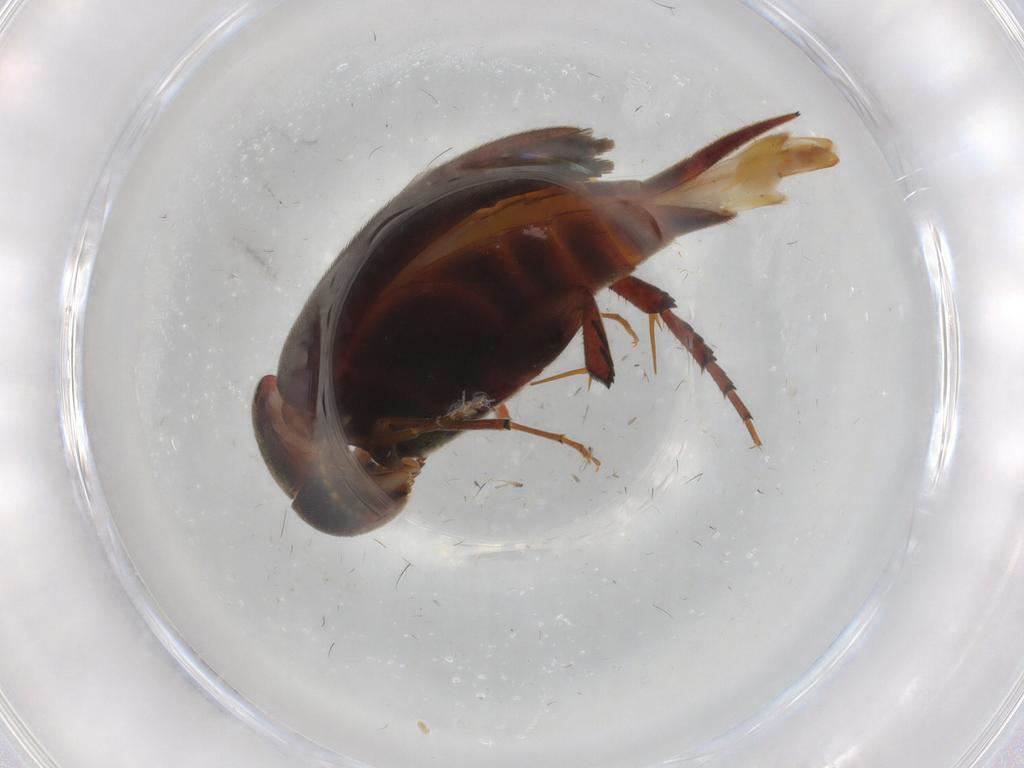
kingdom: Animalia
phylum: Arthropoda
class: Insecta
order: Coleoptera
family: Mordellidae
